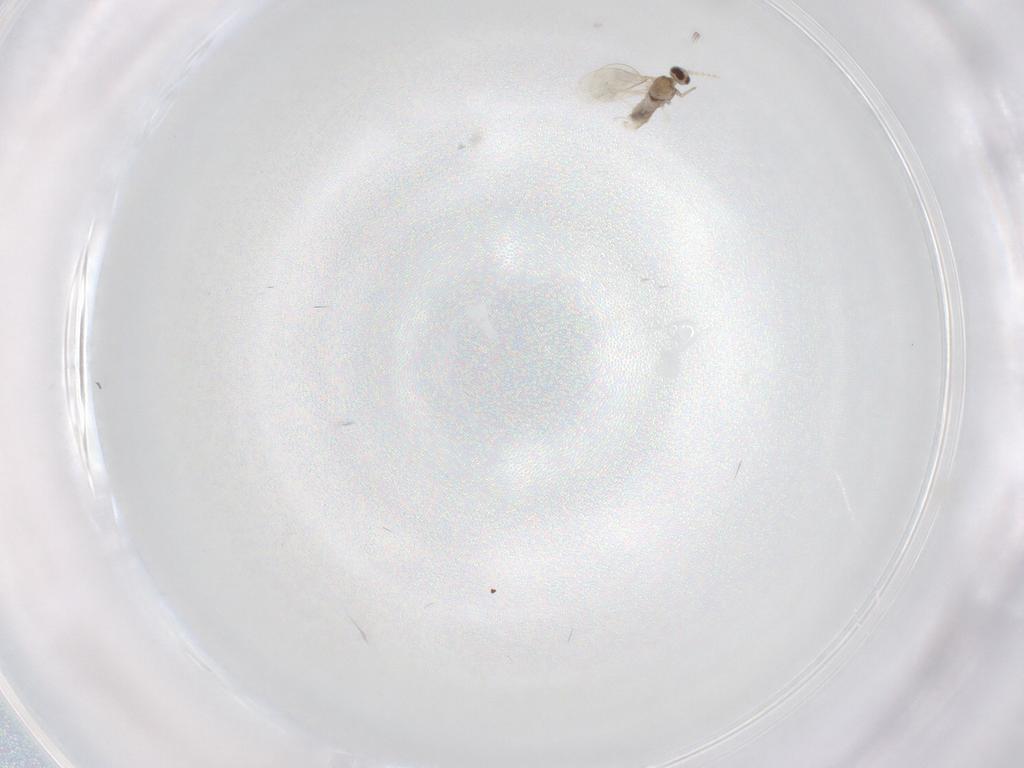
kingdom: Animalia
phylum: Arthropoda
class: Insecta
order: Diptera
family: Cecidomyiidae
